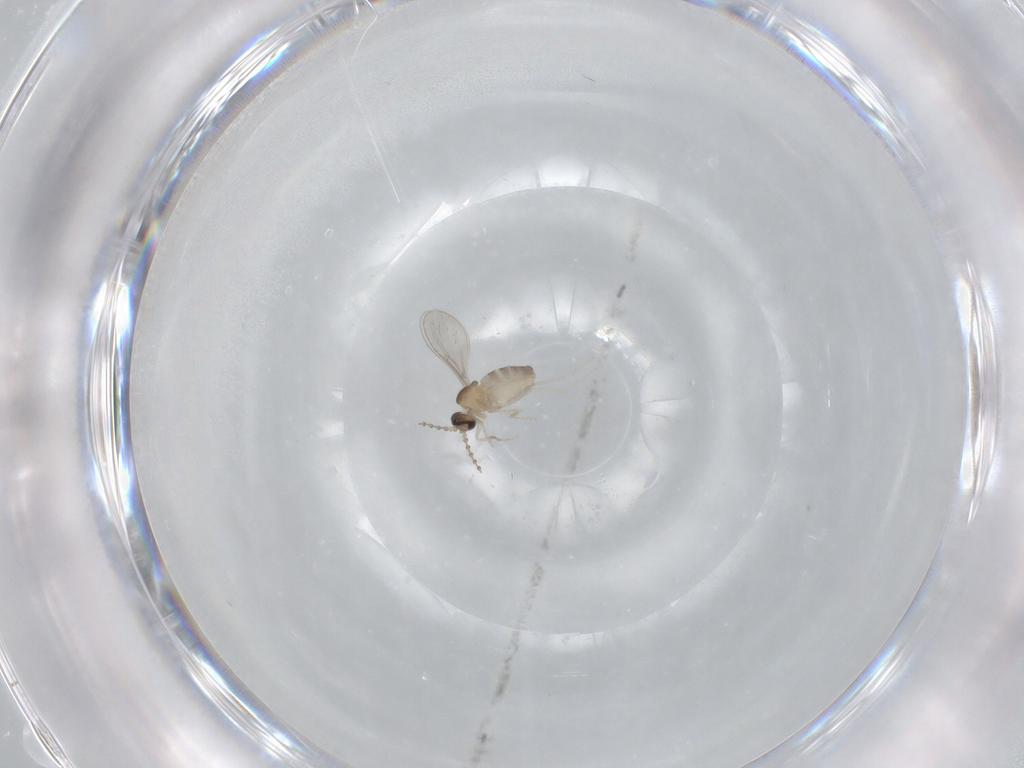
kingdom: Animalia
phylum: Arthropoda
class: Insecta
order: Diptera
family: Cecidomyiidae
